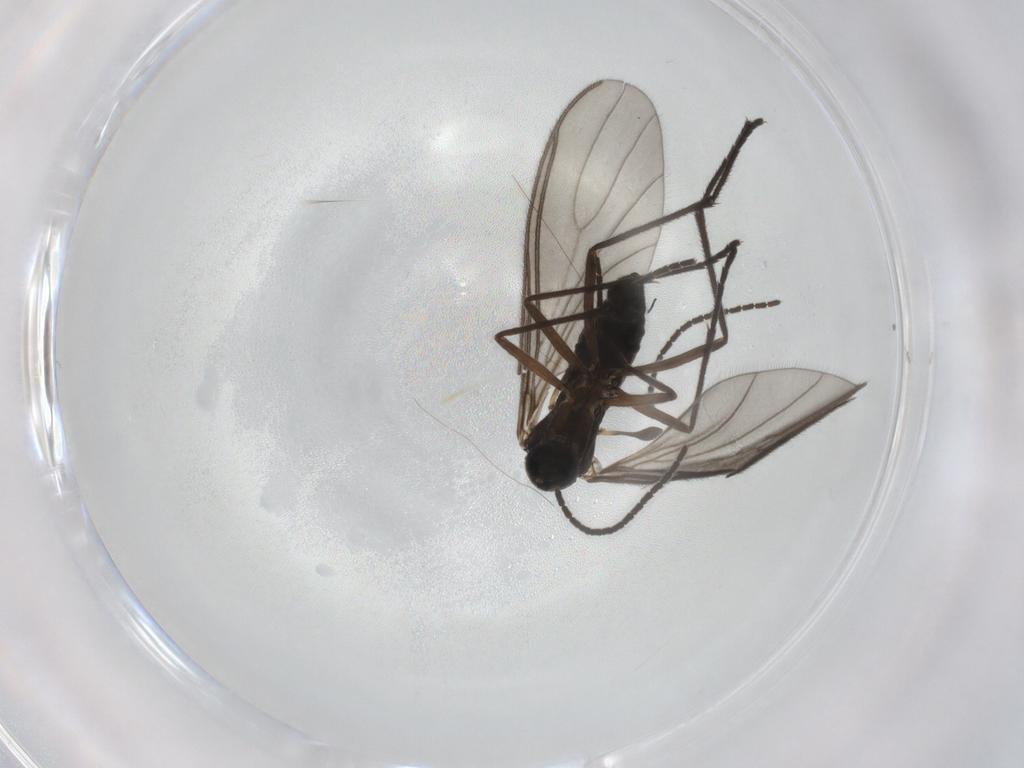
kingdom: Animalia
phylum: Arthropoda
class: Insecta
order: Diptera
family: Sciaridae
